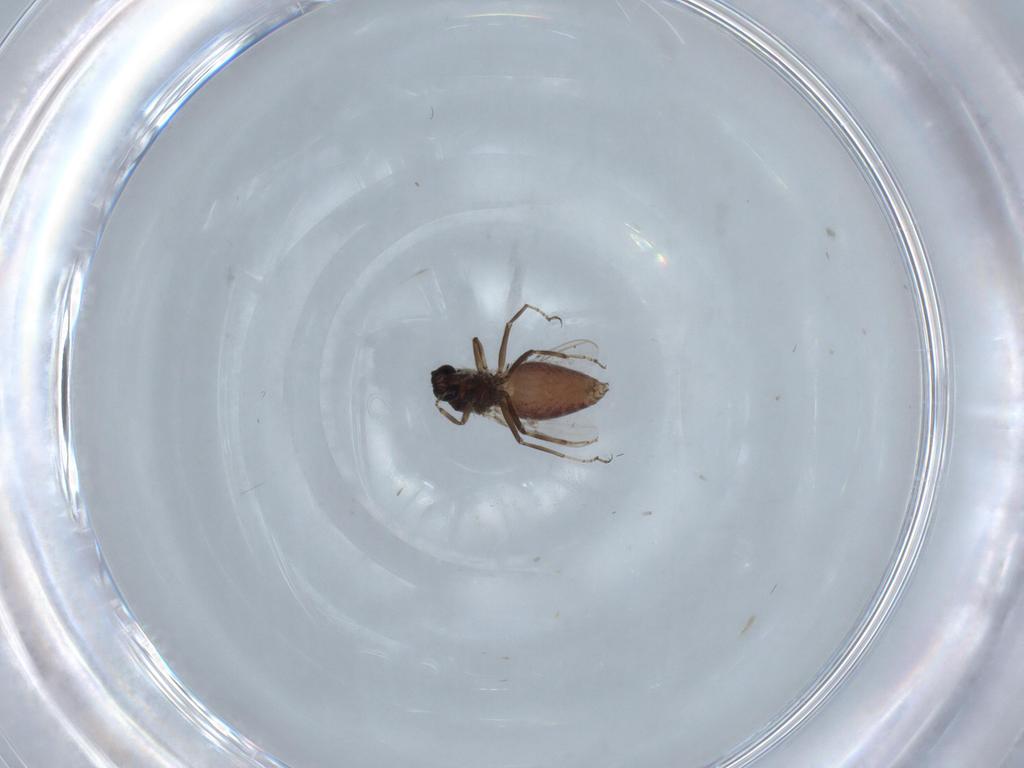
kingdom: Animalia
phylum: Arthropoda
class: Insecta
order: Diptera
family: Ceratopogonidae
